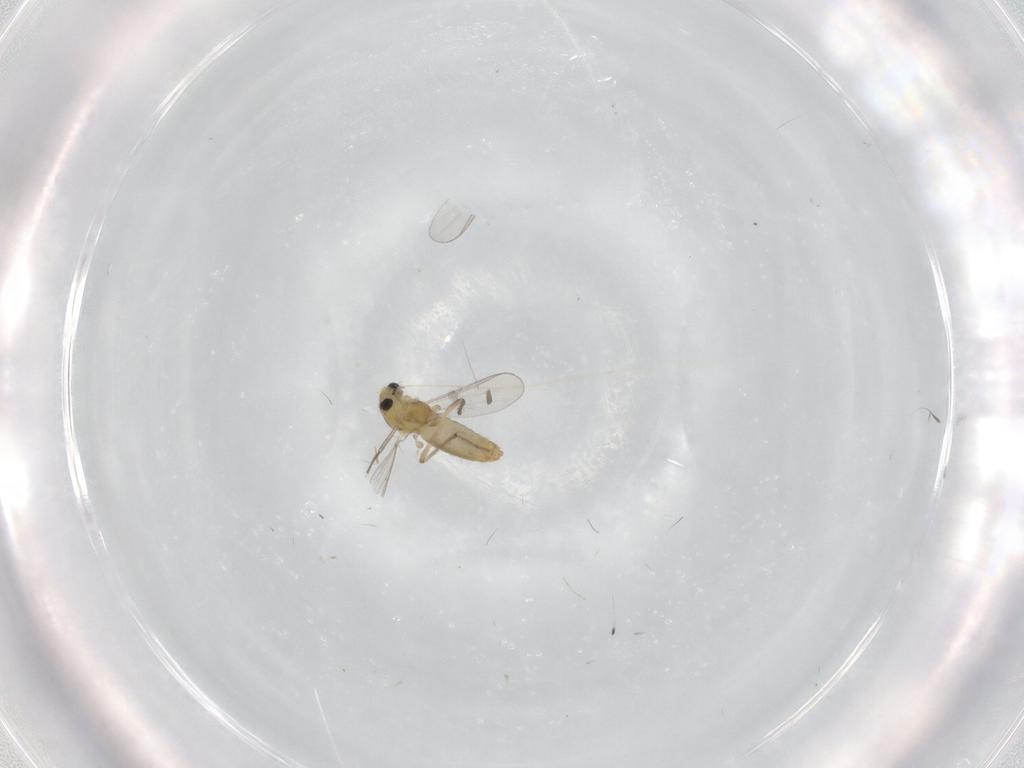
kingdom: Animalia
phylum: Arthropoda
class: Insecta
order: Diptera
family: Chironomidae
